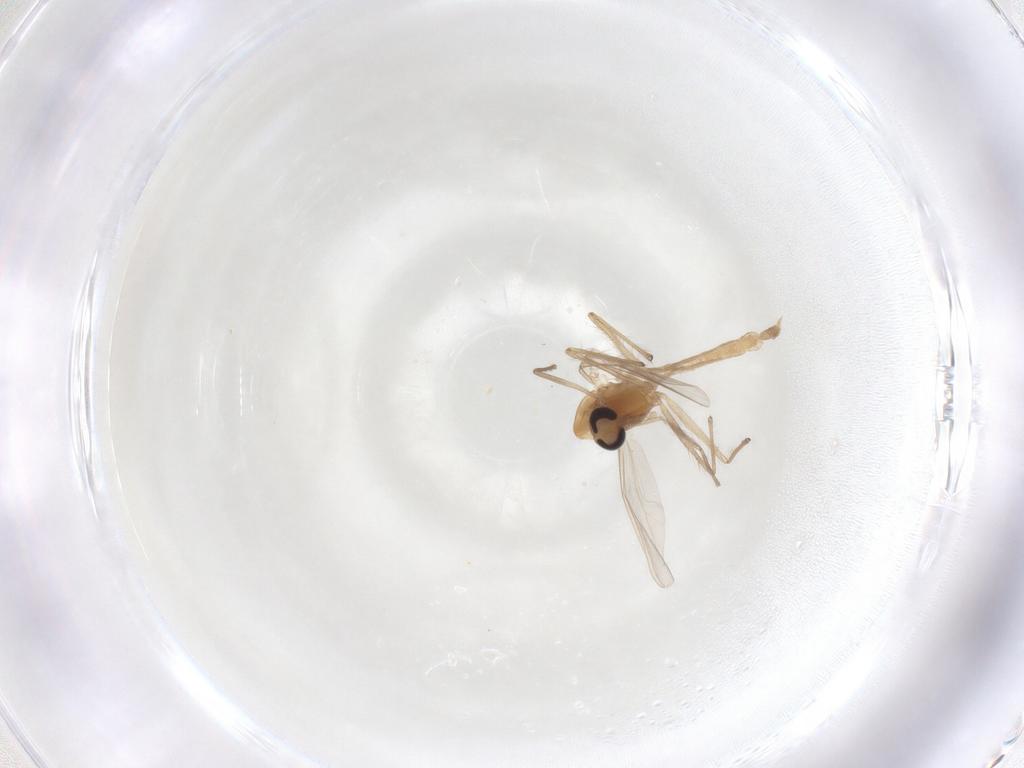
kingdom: Animalia
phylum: Arthropoda
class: Insecta
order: Diptera
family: Chironomidae
